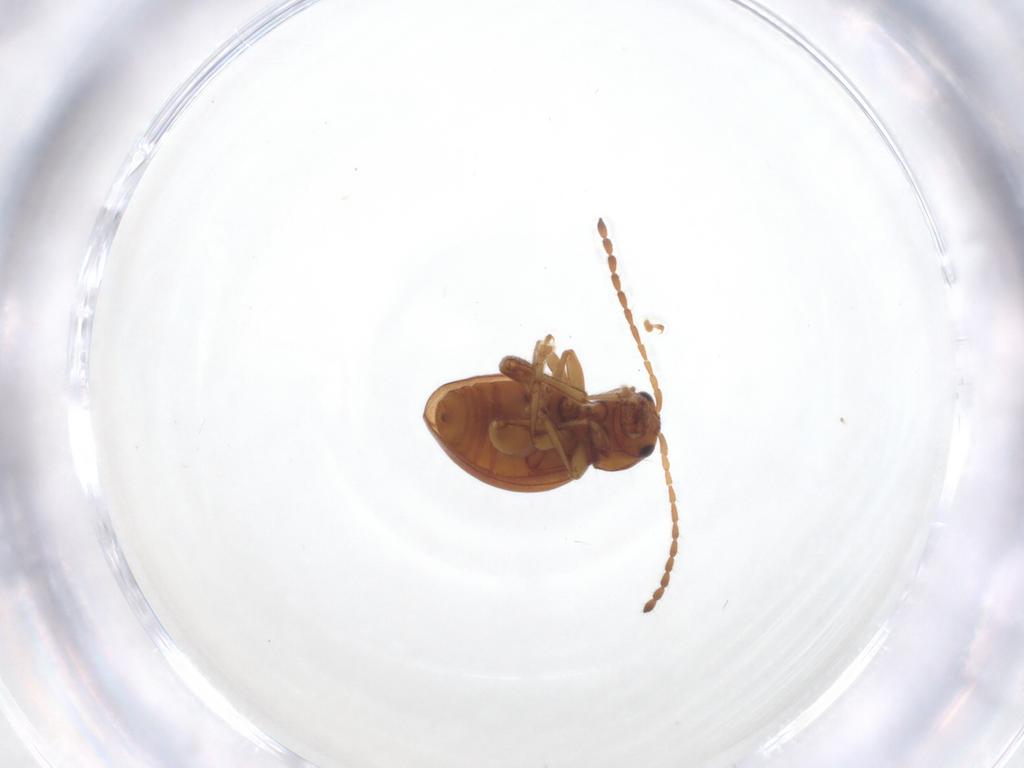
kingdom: Animalia
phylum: Arthropoda
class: Insecta
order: Coleoptera
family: Chrysomelidae
